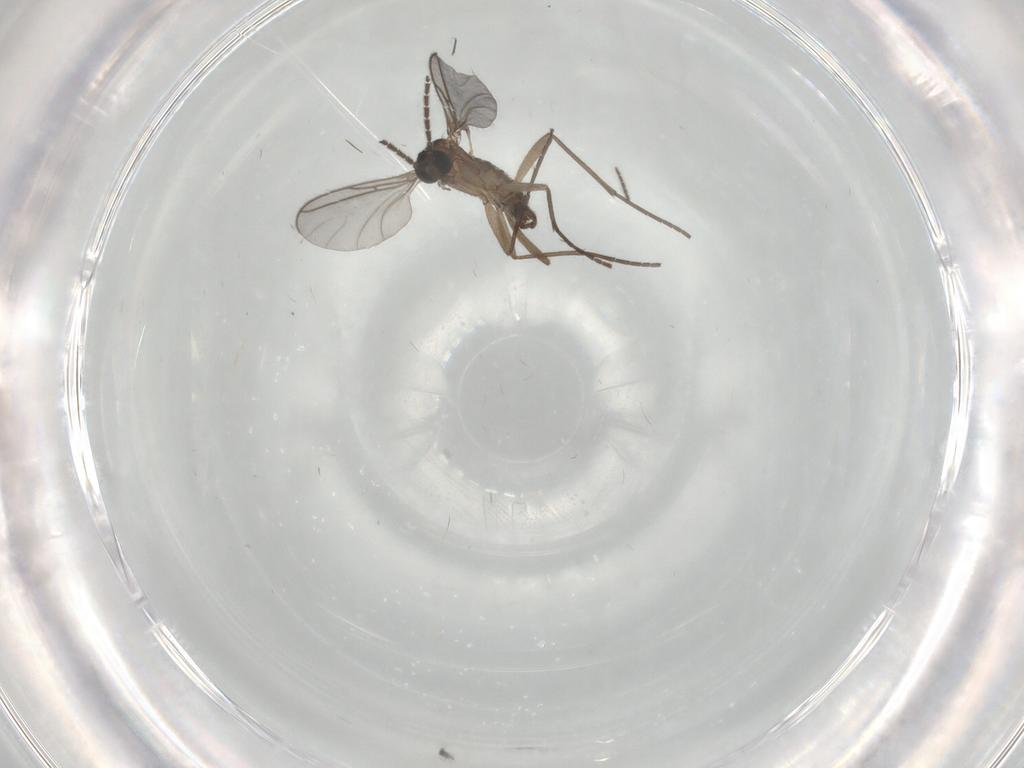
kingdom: Animalia
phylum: Arthropoda
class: Insecta
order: Diptera
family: Sciaridae
